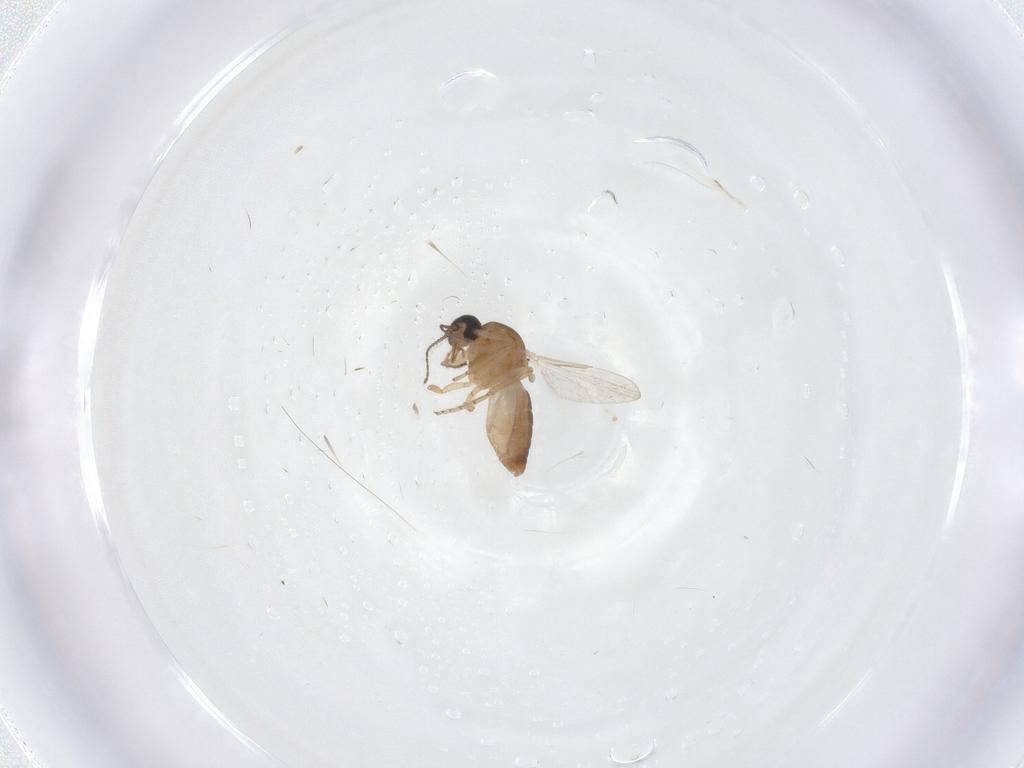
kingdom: Animalia
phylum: Arthropoda
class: Insecta
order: Diptera
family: Ceratopogonidae
